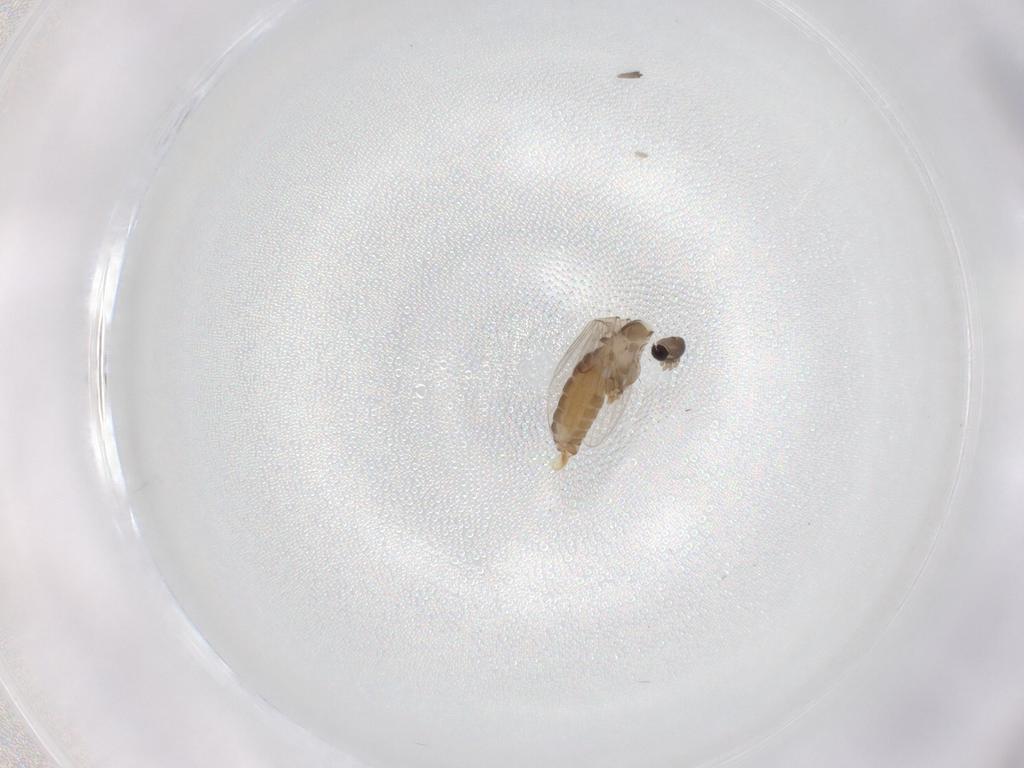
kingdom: Animalia
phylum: Arthropoda
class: Insecta
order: Diptera
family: Psychodidae
